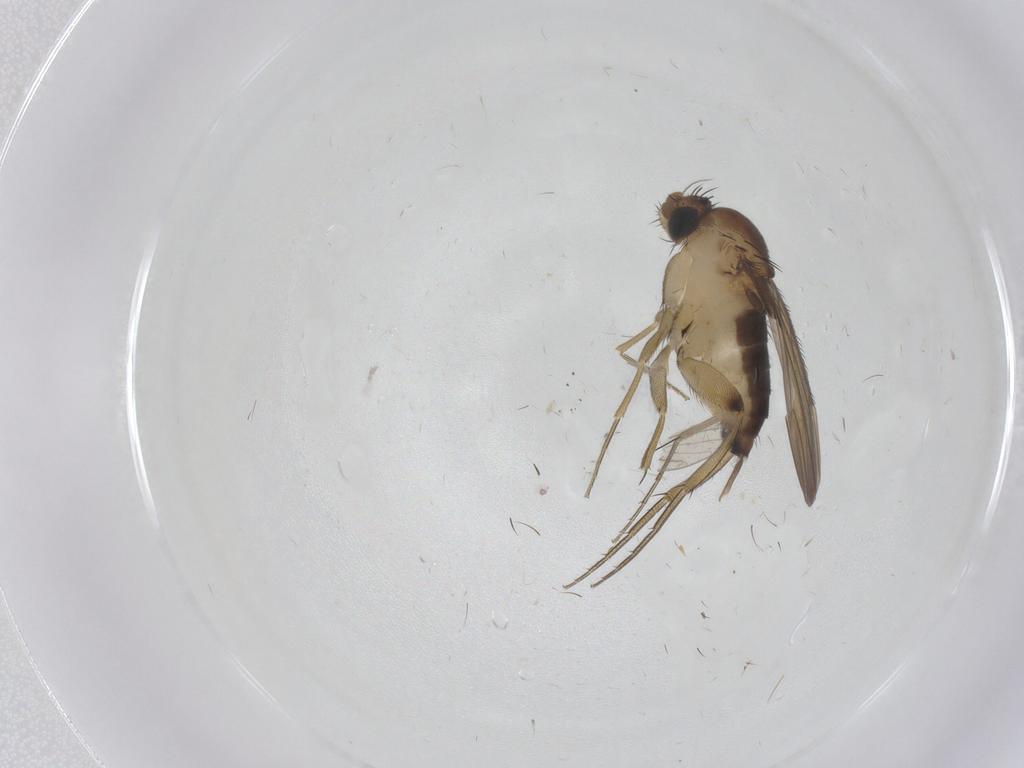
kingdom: Animalia
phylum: Arthropoda
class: Insecta
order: Diptera
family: Phoridae
